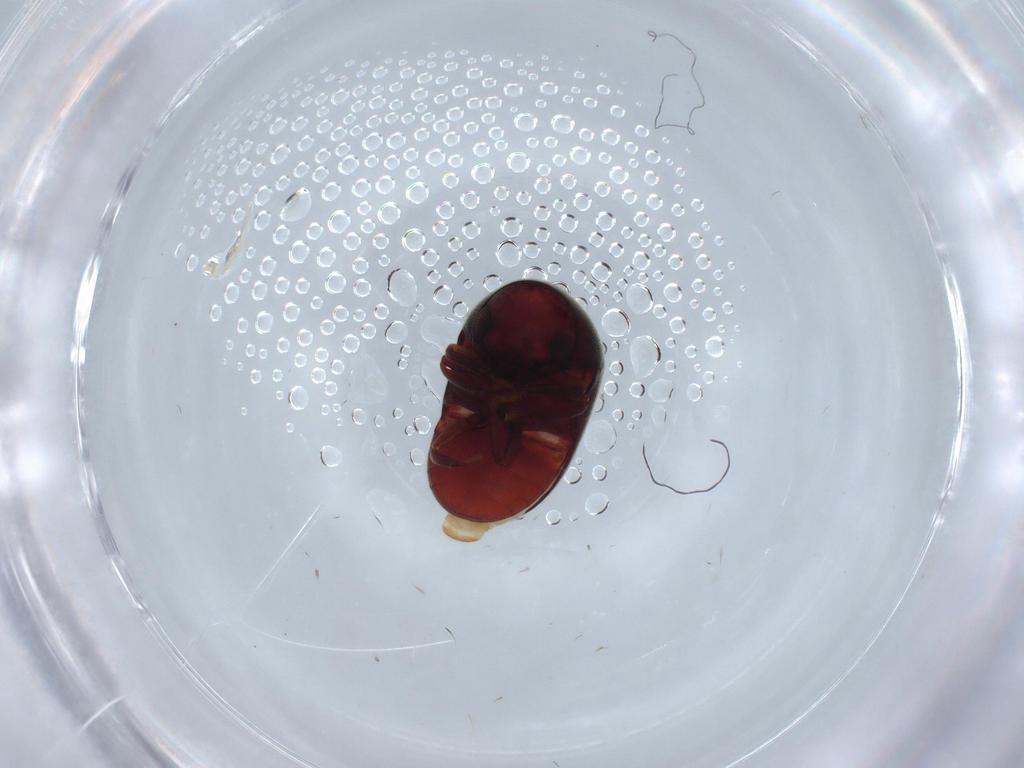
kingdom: Animalia
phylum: Arthropoda
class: Insecta
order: Coleoptera
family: Ptinidae
